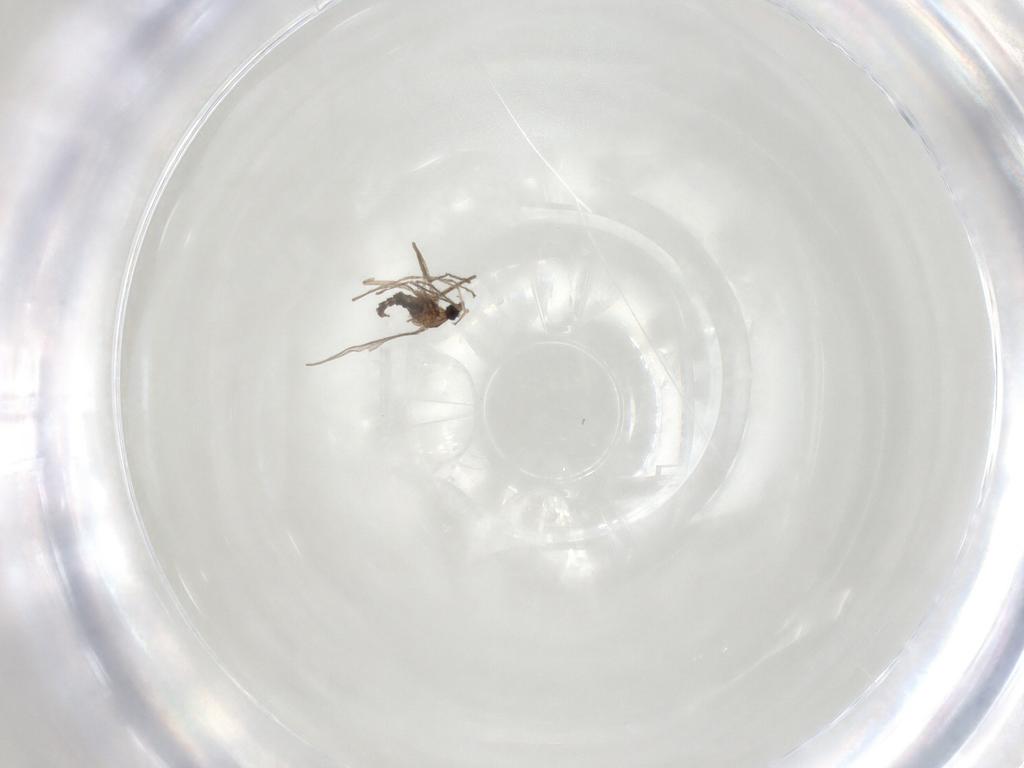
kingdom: Animalia
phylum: Arthropoda
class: Insecta
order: Diptera
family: Cecidomyiidae
